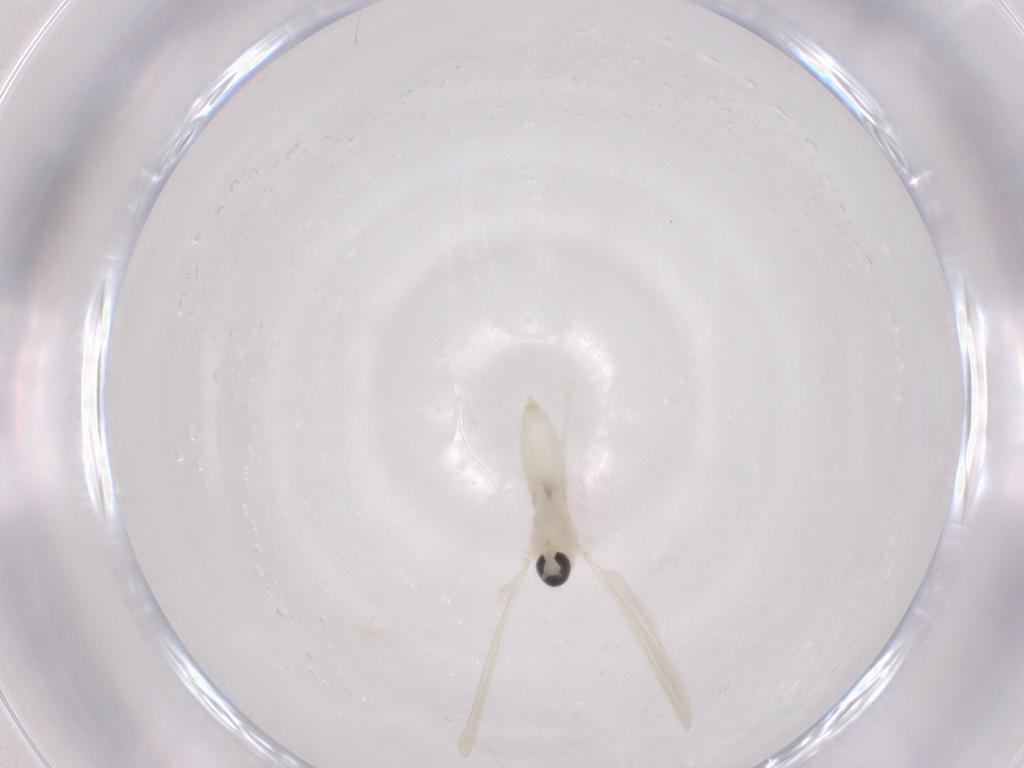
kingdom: Animalia
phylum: Arthropoda
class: Insecta
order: Diptera
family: Cecidomyiidae
